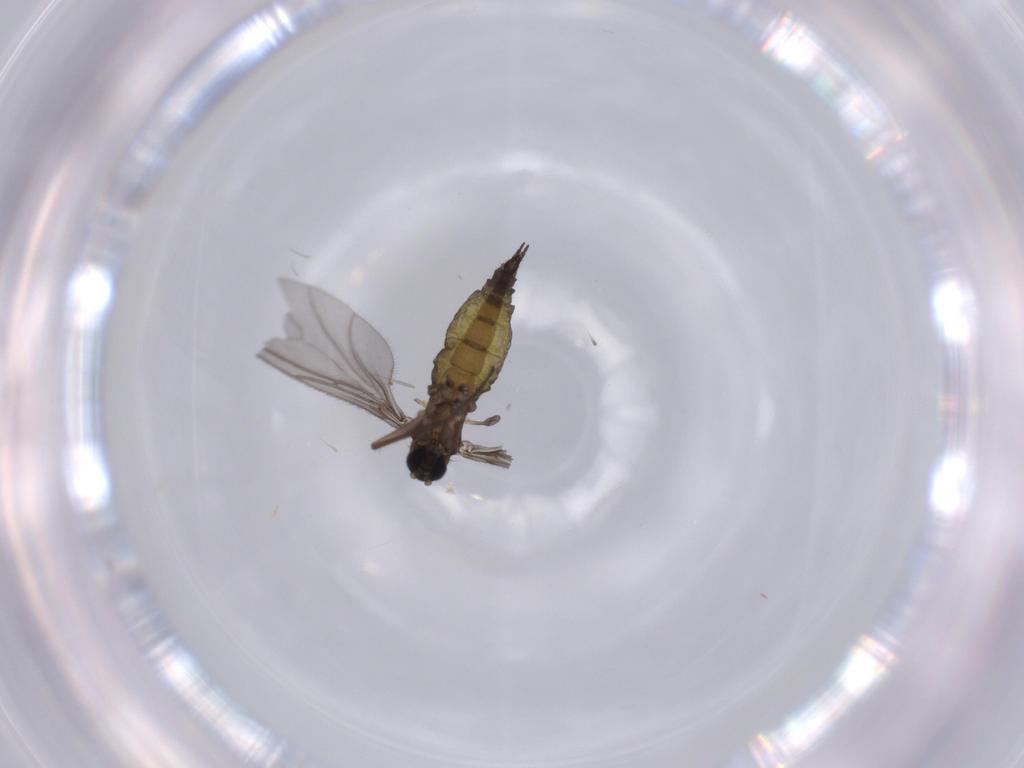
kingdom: Animalia
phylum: Arthropoda
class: Insecta
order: Diptera
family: Sciaridae
